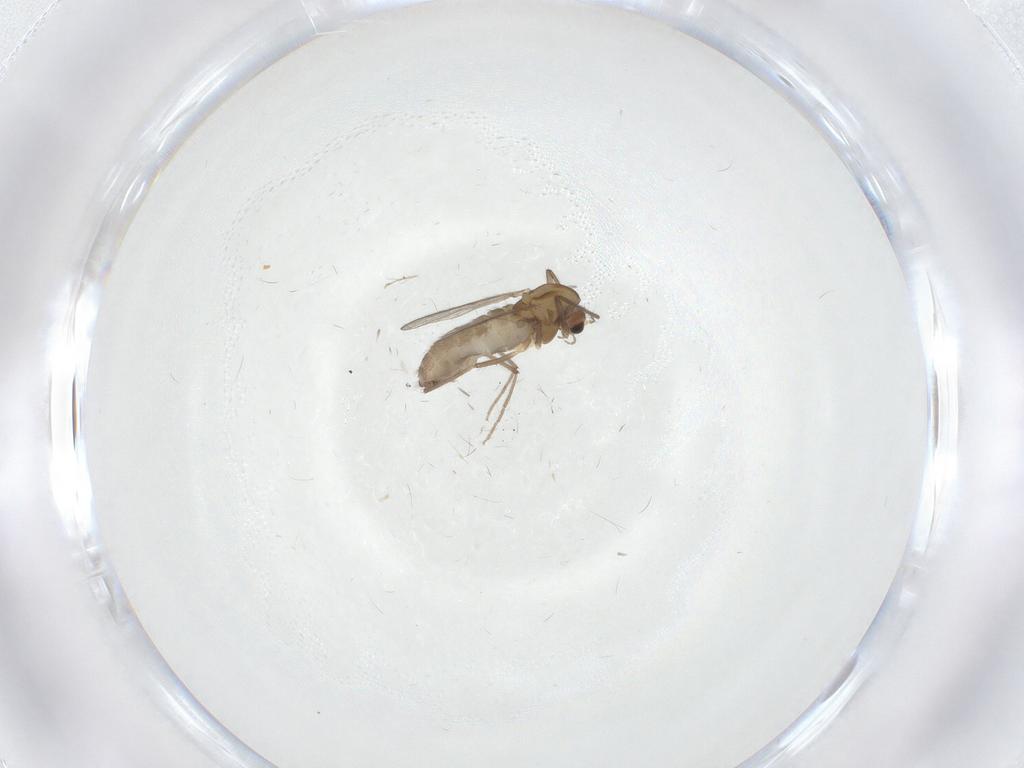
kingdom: Animalia
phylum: Arthropoda
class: Insecta
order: Diptera
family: Chironomidae
